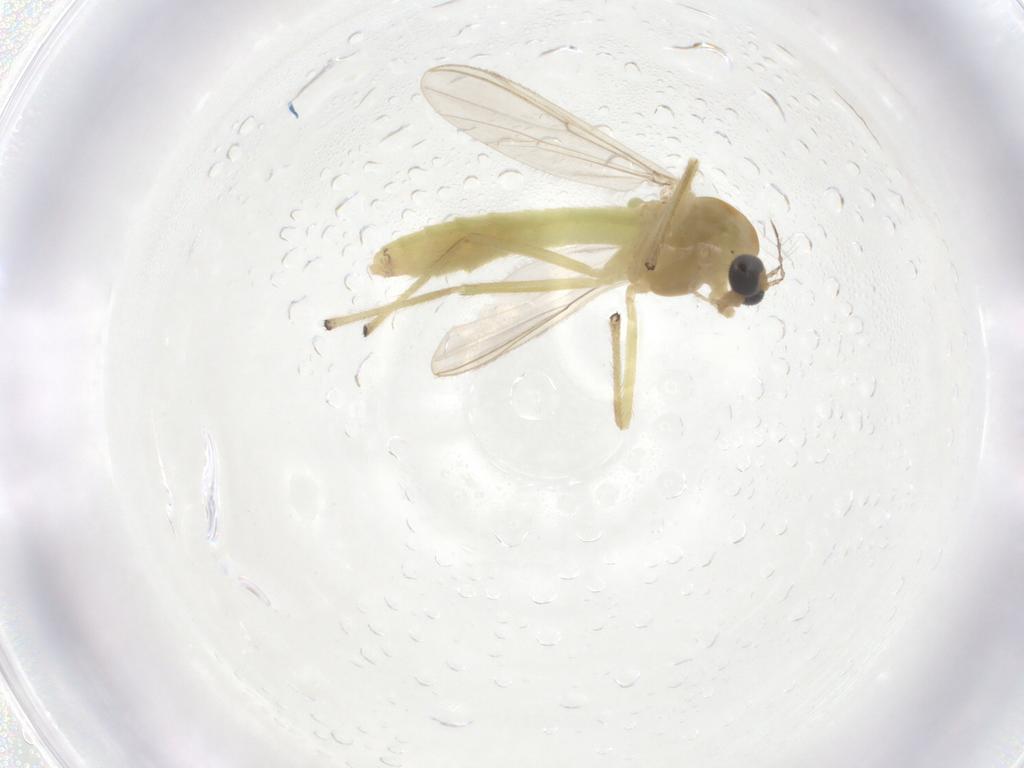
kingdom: Animalia
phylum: Arthropoda
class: Insecta
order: Diptera
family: Chironomidae
